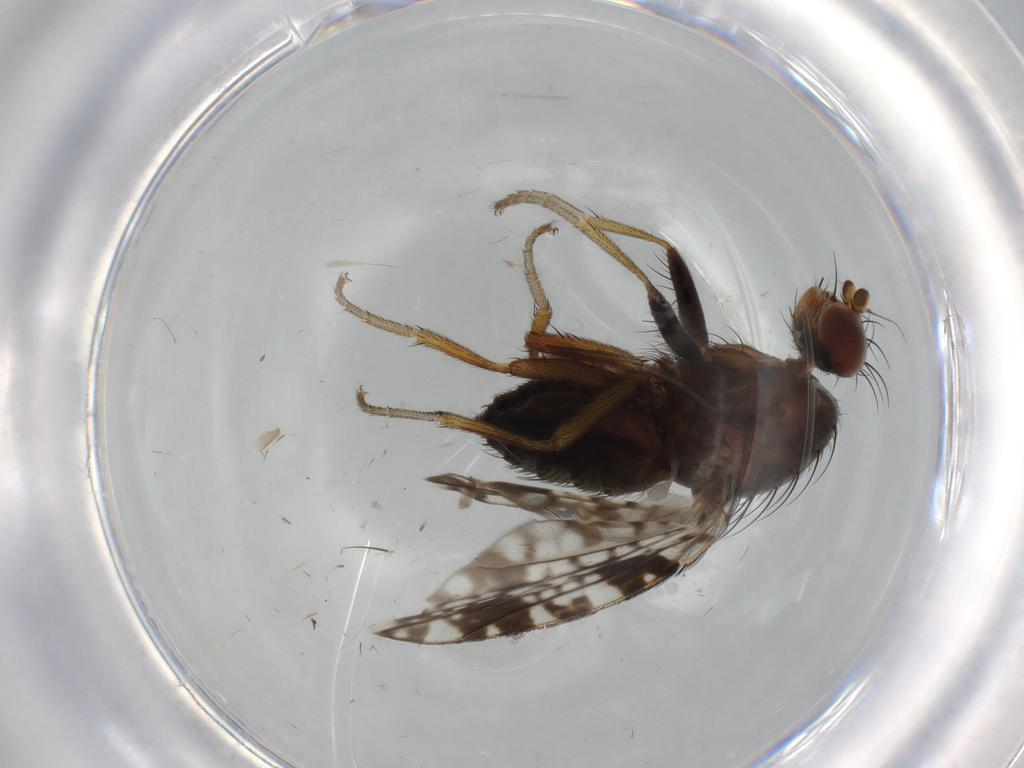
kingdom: Animalia
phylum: Arthropoda
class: Insecta
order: Diptera
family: Tephritidae
